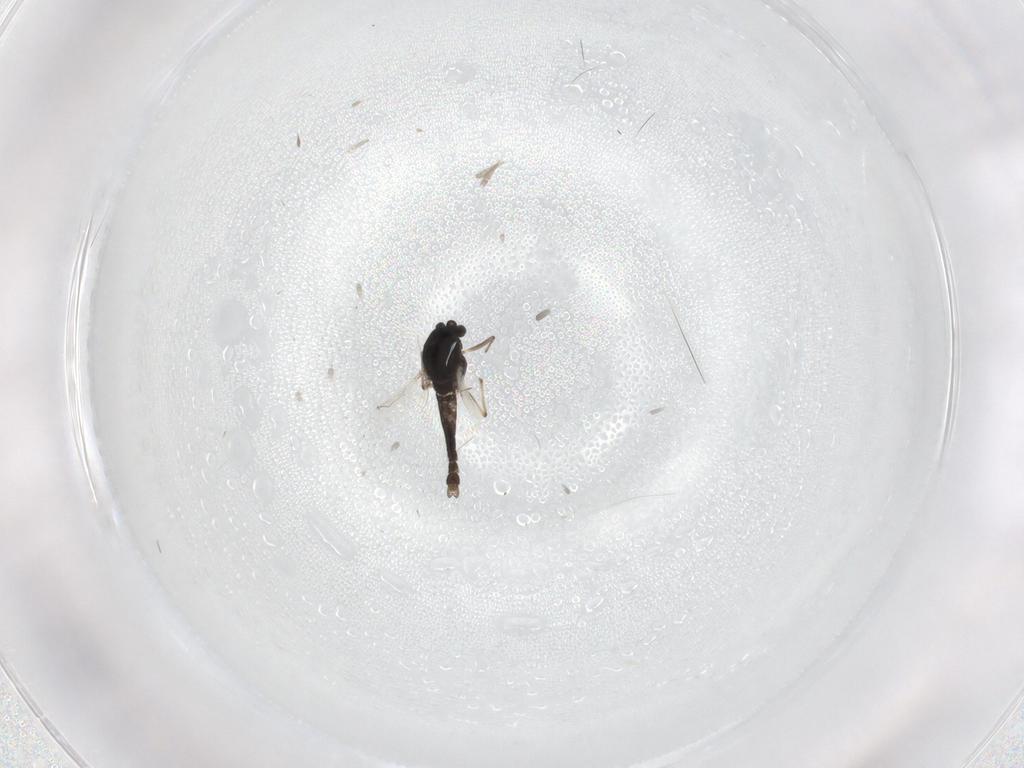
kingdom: Animalia
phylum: Arthropoda
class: Insecta
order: Diptera
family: Chironomidae
